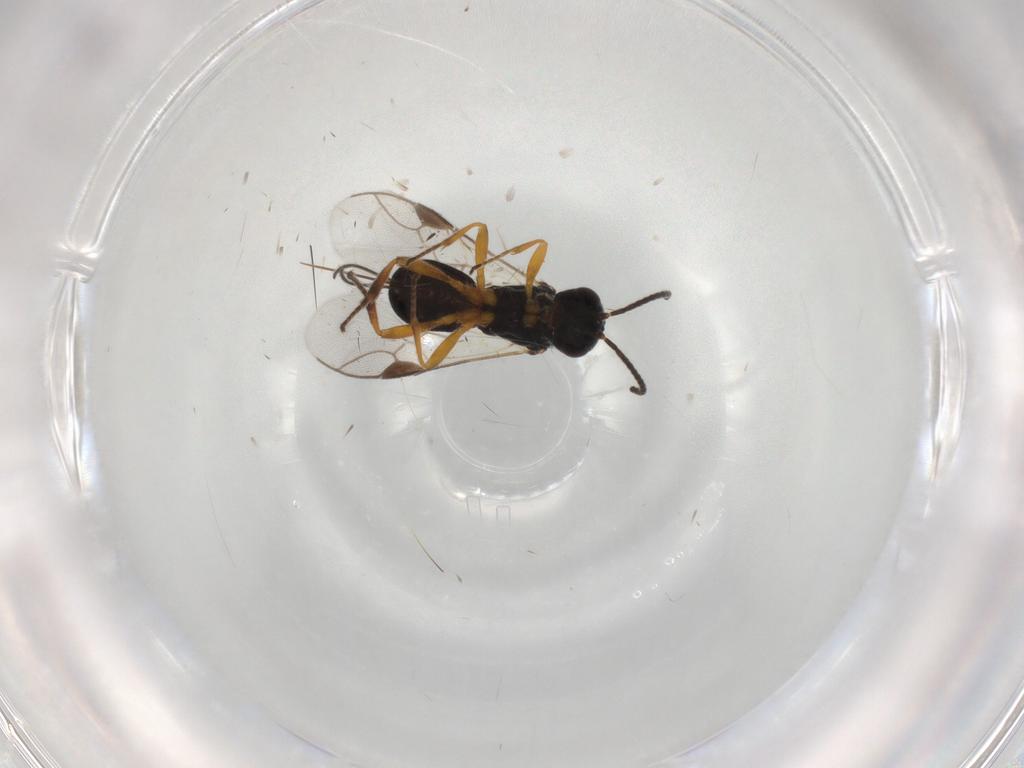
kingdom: Animalia
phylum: Arthropoda
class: Insecta
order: Hymenoptera
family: Braconidae
